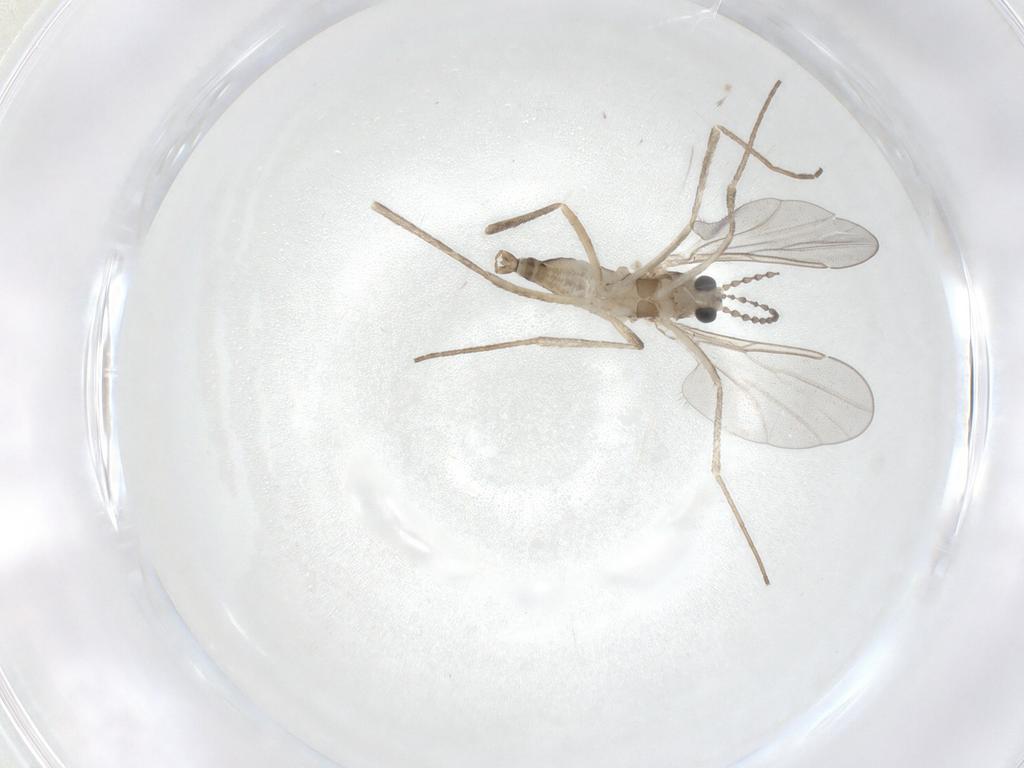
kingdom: Animalia
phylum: Arthropoda
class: Insecta
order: Diptera
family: Cecidomyiidae
